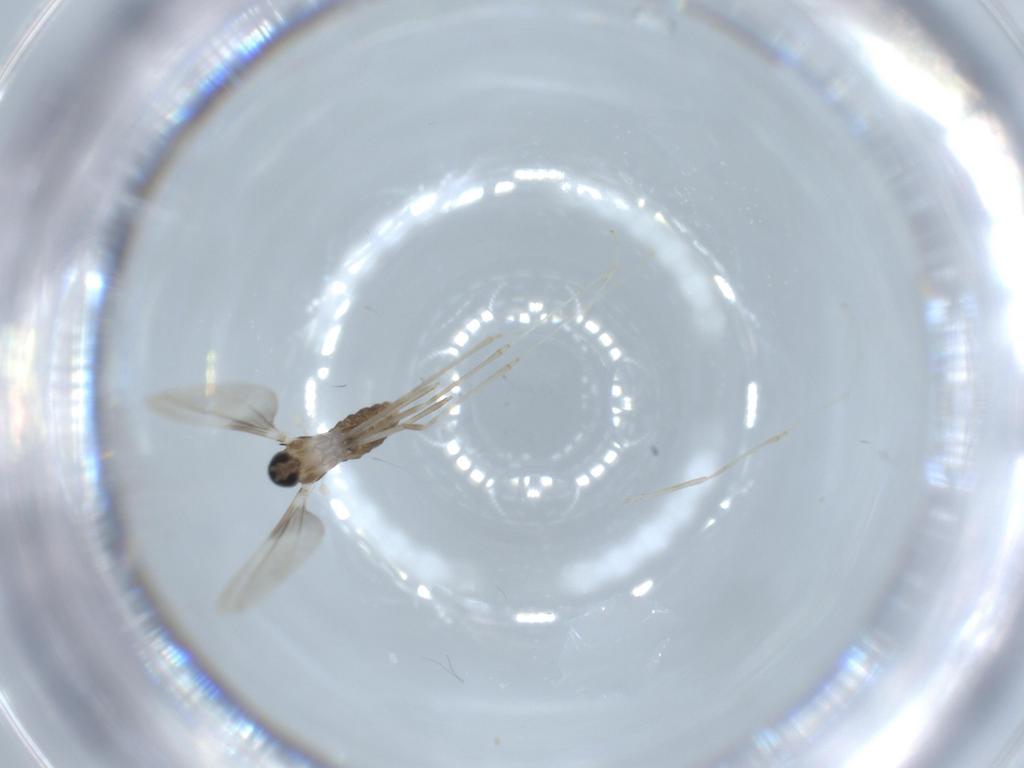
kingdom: Animalia
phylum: Arthropoda
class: Insecta
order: Diptera
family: Cecidomyiidae
